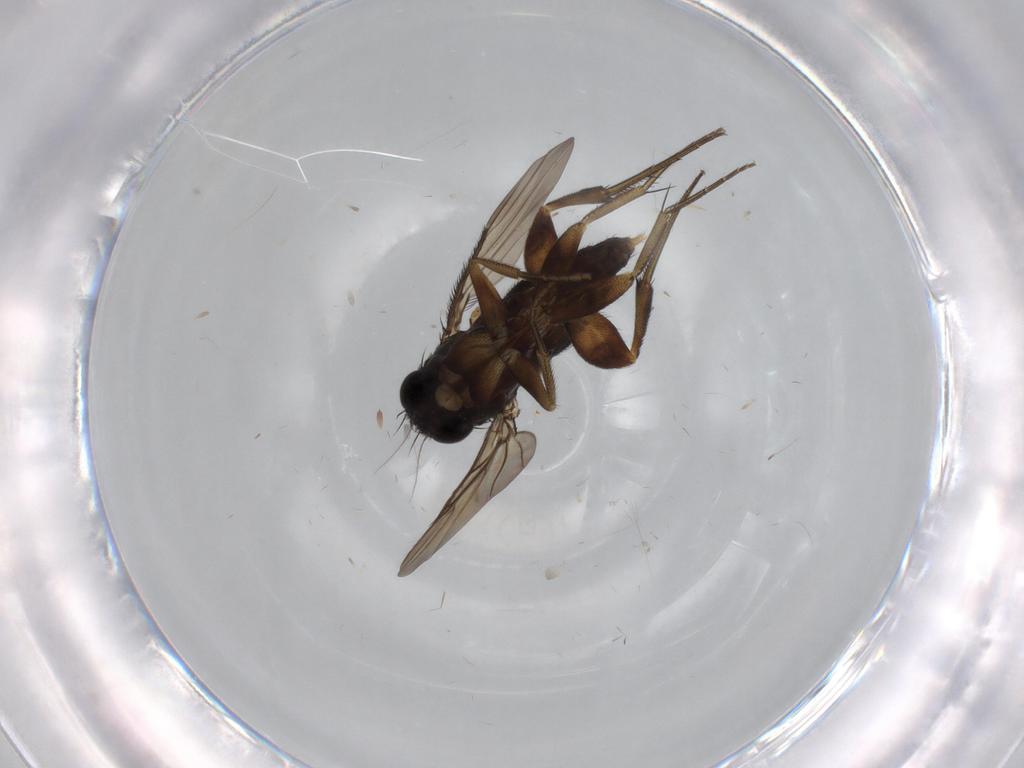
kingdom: Animalia
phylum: Arthropoda
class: Insecta
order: Diptera
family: Phoridae
